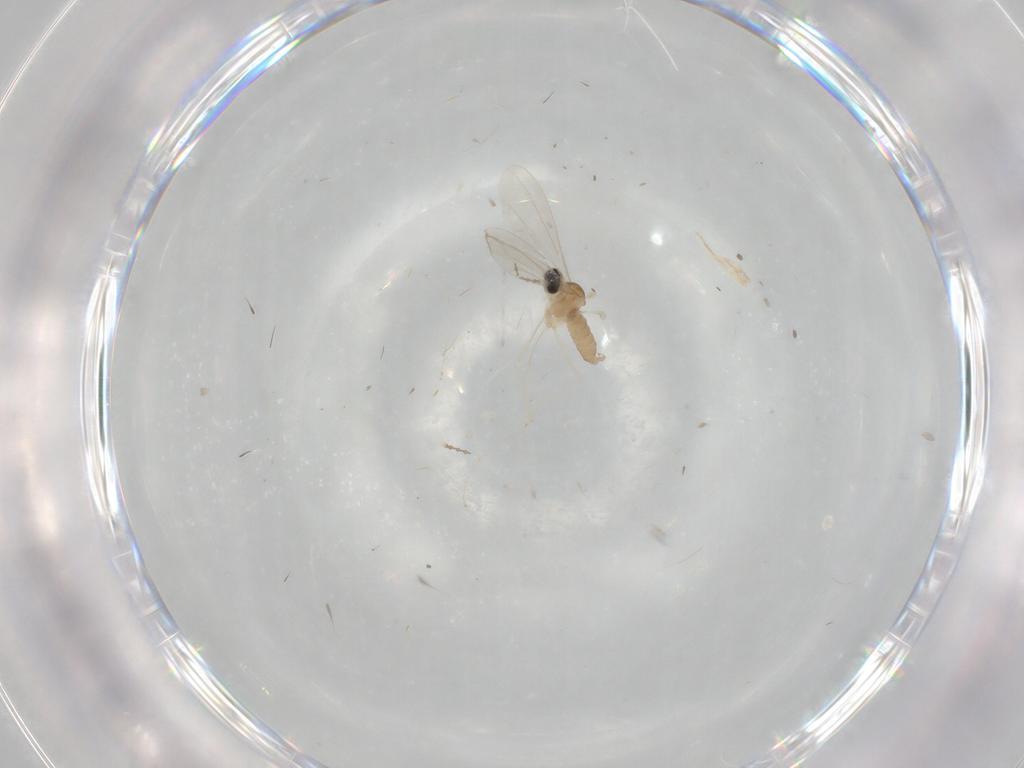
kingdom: Animalia
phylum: Arthropoda
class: Insecta
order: Diptera
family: Cecidomyiidae
